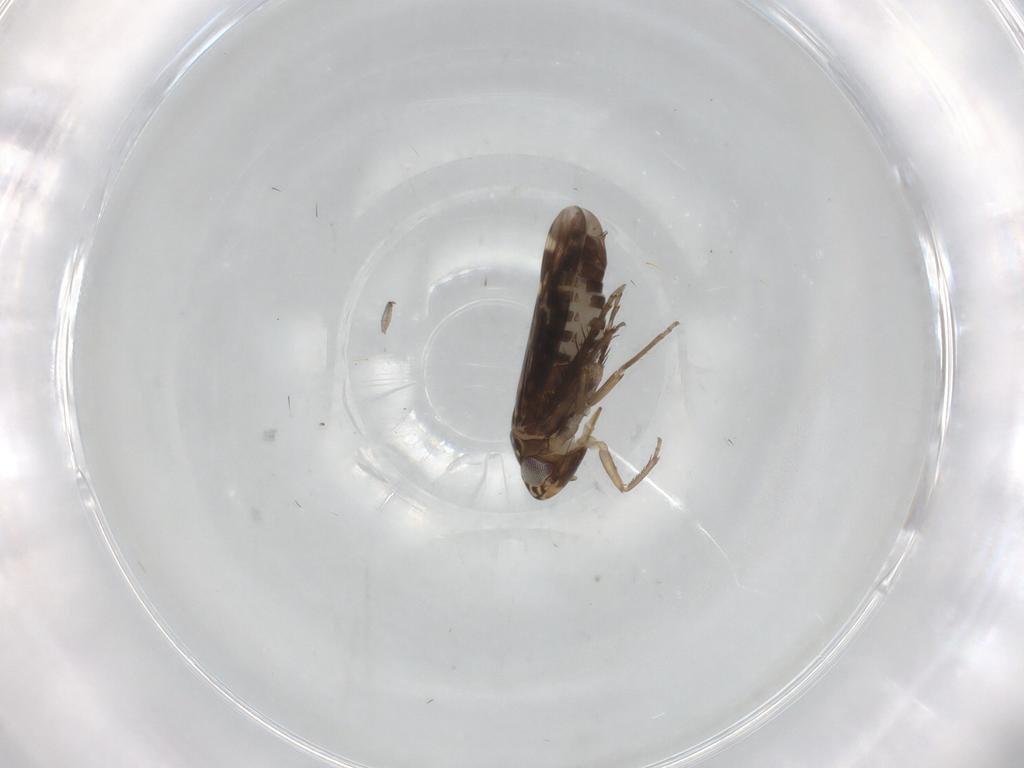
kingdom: Animalia
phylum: Arthropoda
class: Insecta
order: Hemiptera
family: Cicadellidae
